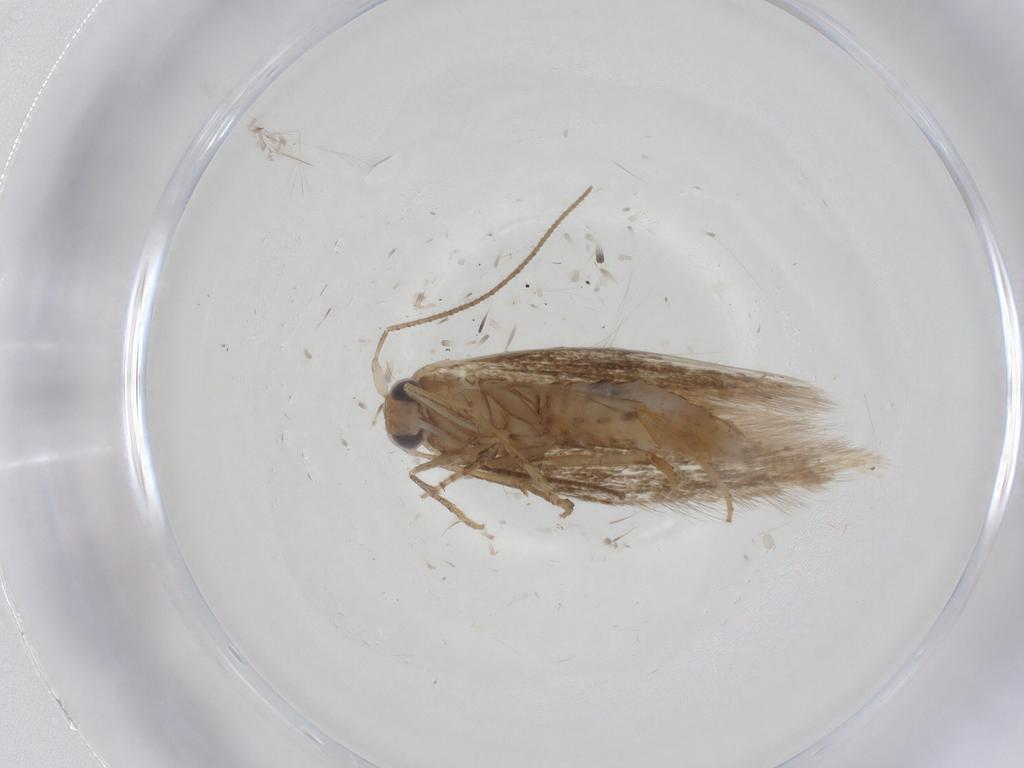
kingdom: Animalia
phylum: Arthropoda
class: Insecta
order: Lepidoptera
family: Bucculatricidae
